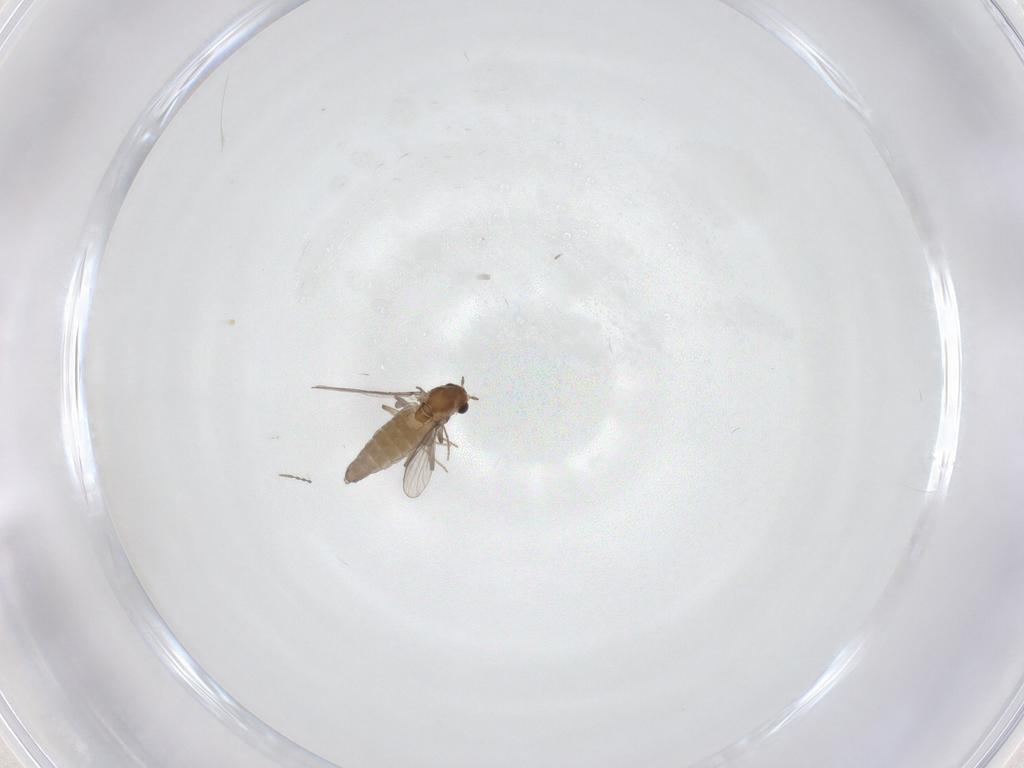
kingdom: Animalia
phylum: Arthropoda
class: Insecta
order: Diptera
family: Chironomidae
